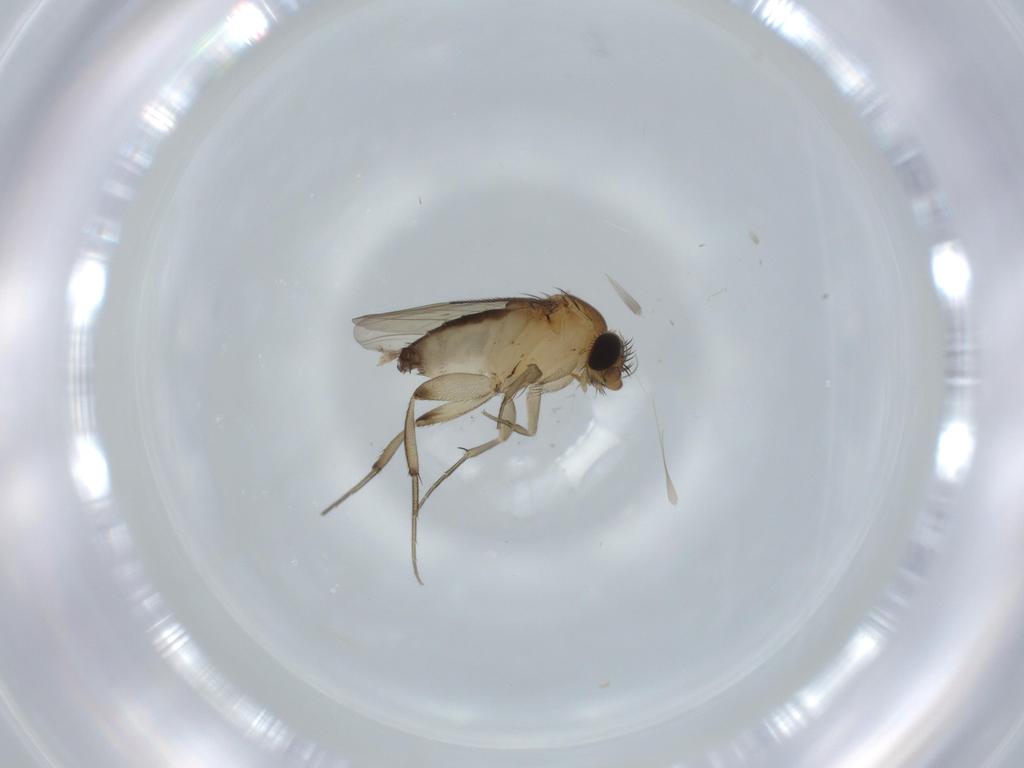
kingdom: Animalia
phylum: Arthropoda
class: Insecta
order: Diptera
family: Phoridae
